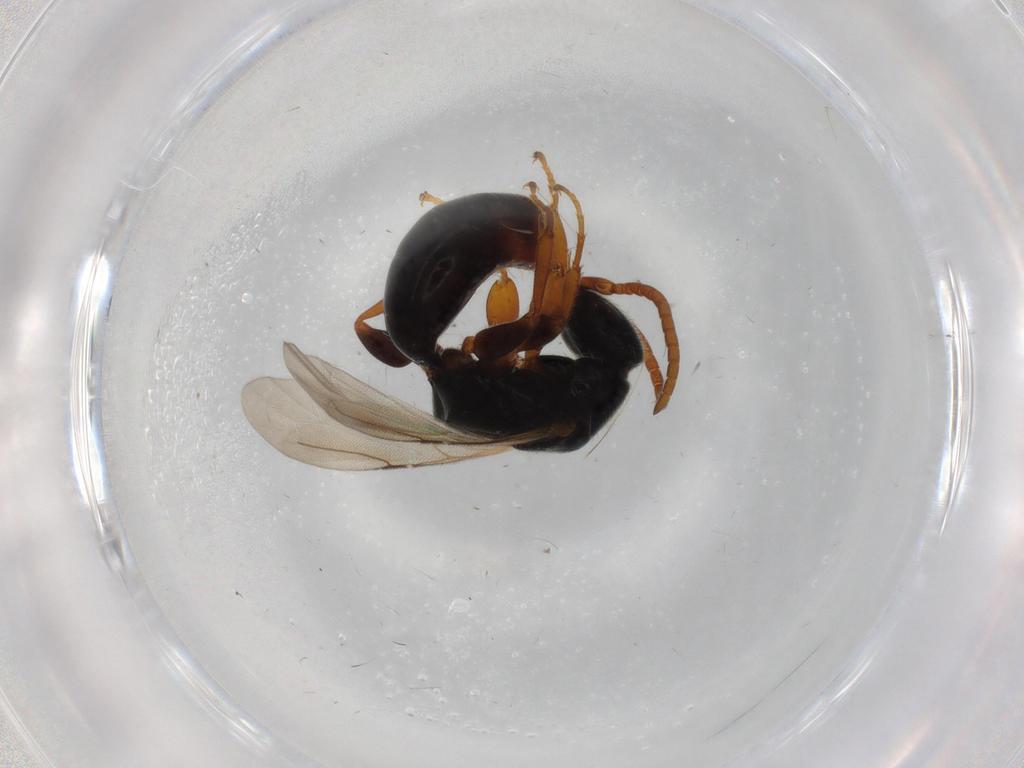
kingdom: Animalia
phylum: Arthropoda
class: Insecta
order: Hymenoptera
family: Bethylidae
